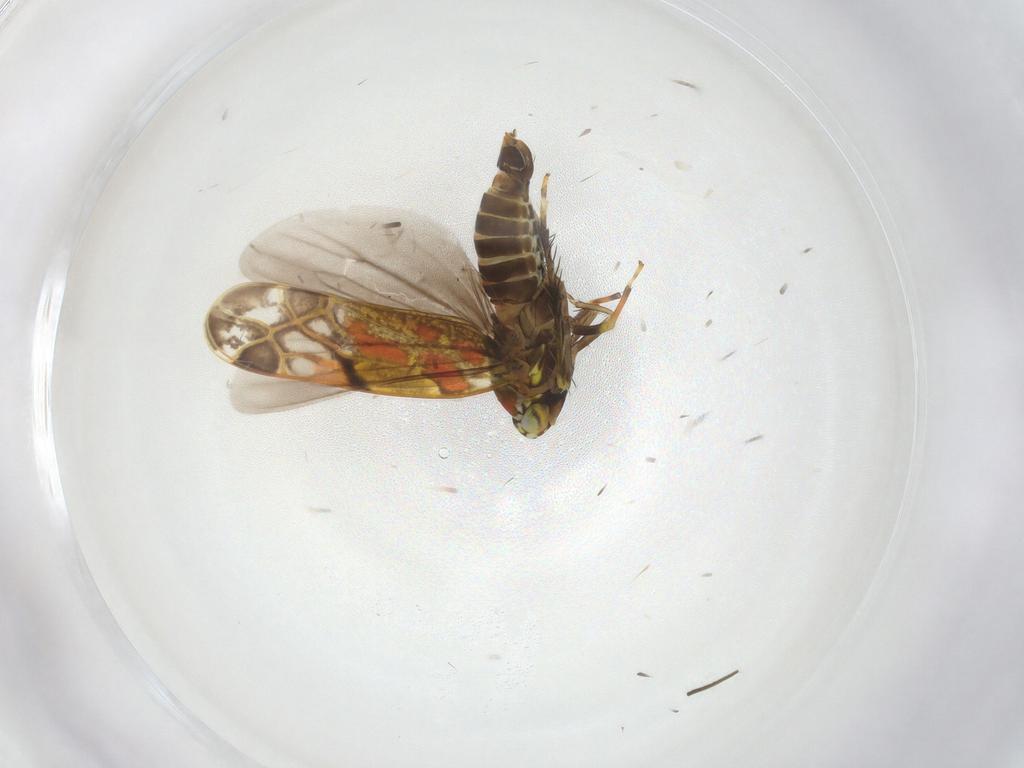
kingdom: Animalia
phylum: Arthropoda
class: Insecta
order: Hemiptera
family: Cicadellidae
